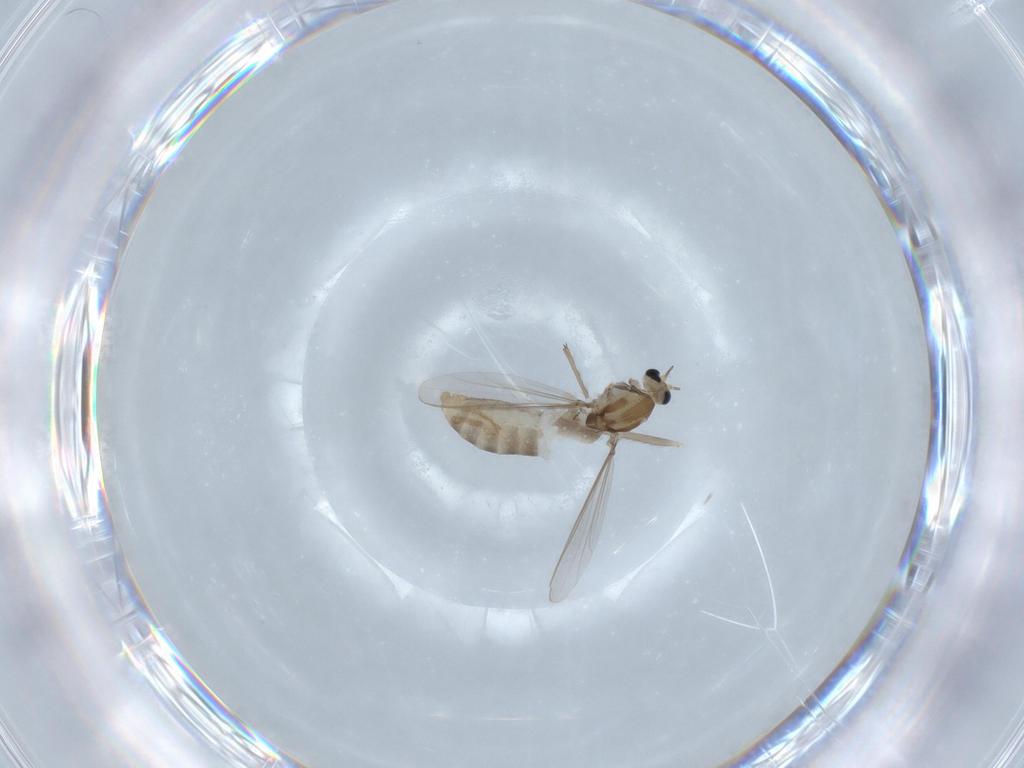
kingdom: Animalia
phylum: Arthropoda
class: Insecta
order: Diptera
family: Chironomidae
